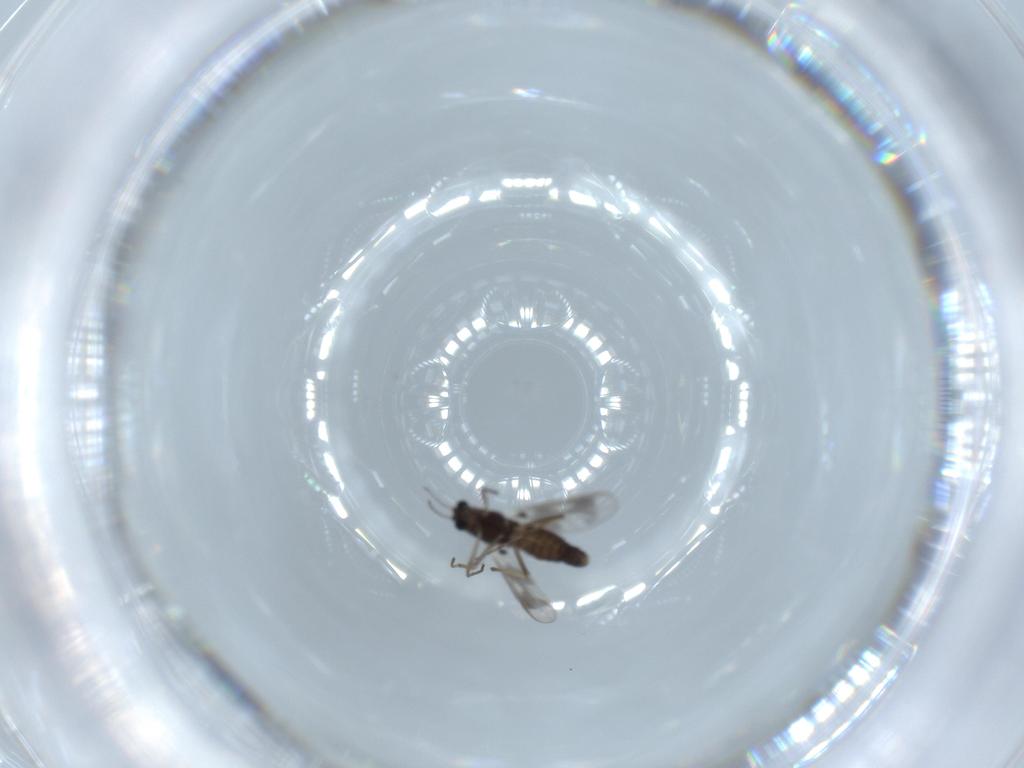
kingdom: Animalia
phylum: Arthropoda
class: Insecta
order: Diptera
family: Chironomidae
